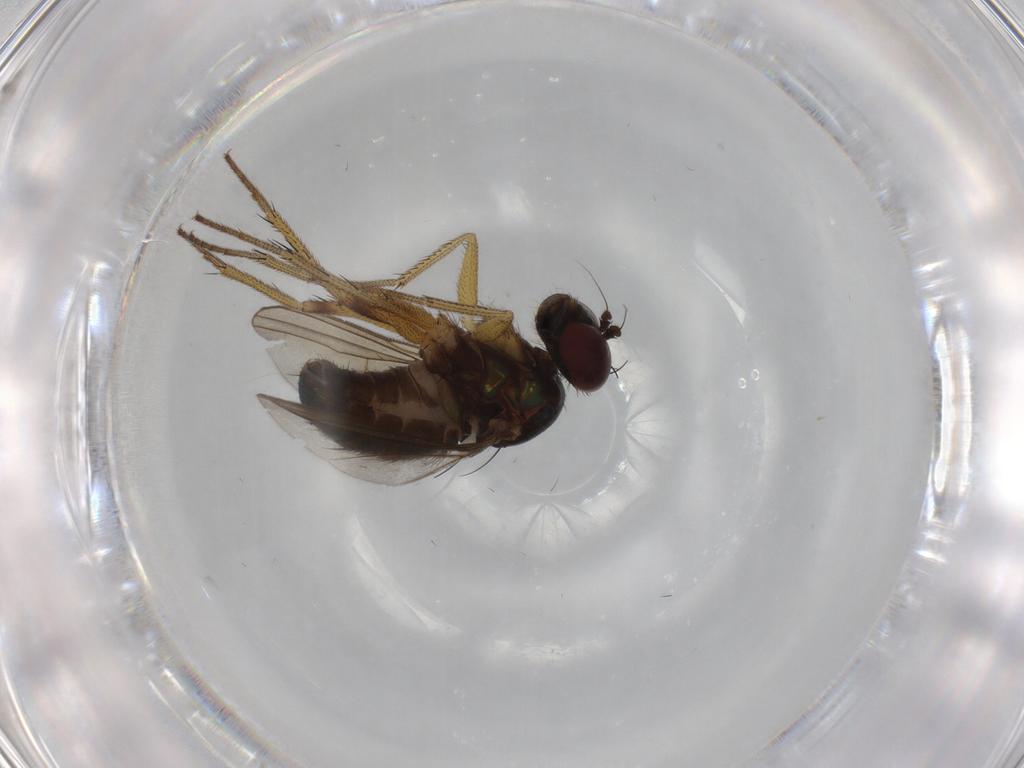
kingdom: Animalia
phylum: Arthropoda
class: Insecta
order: Diptera
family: Dolichopodidae
